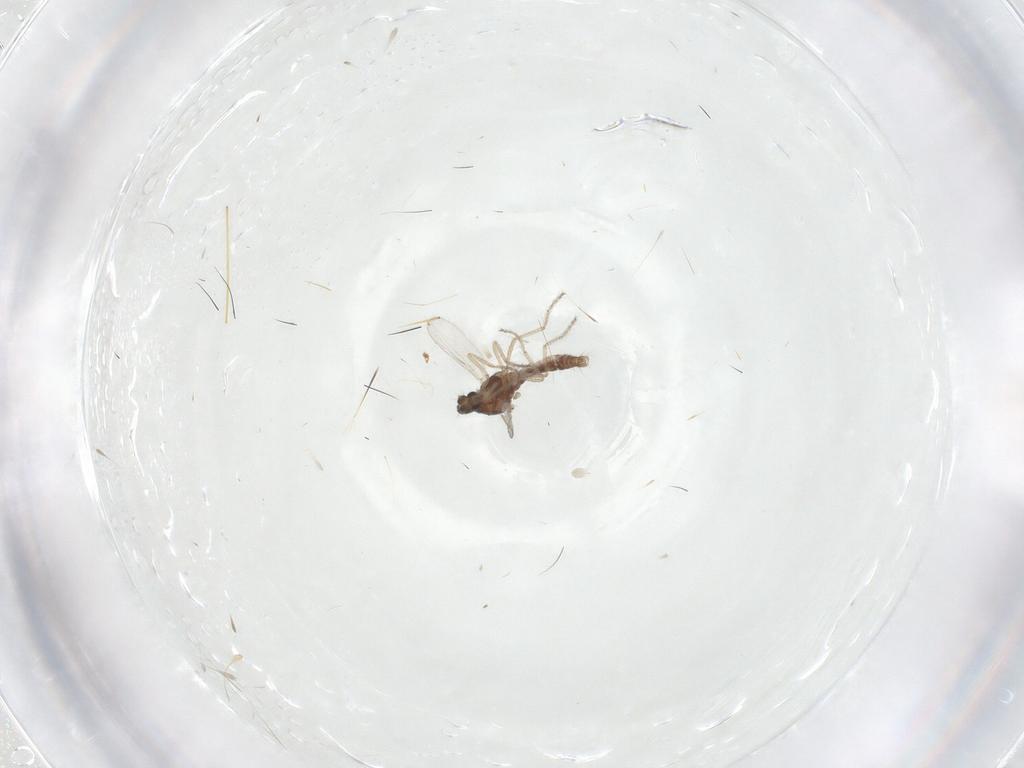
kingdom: Animalia
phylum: Arthropoda
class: Insecta
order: Diptera
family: Ceratopogonidae
